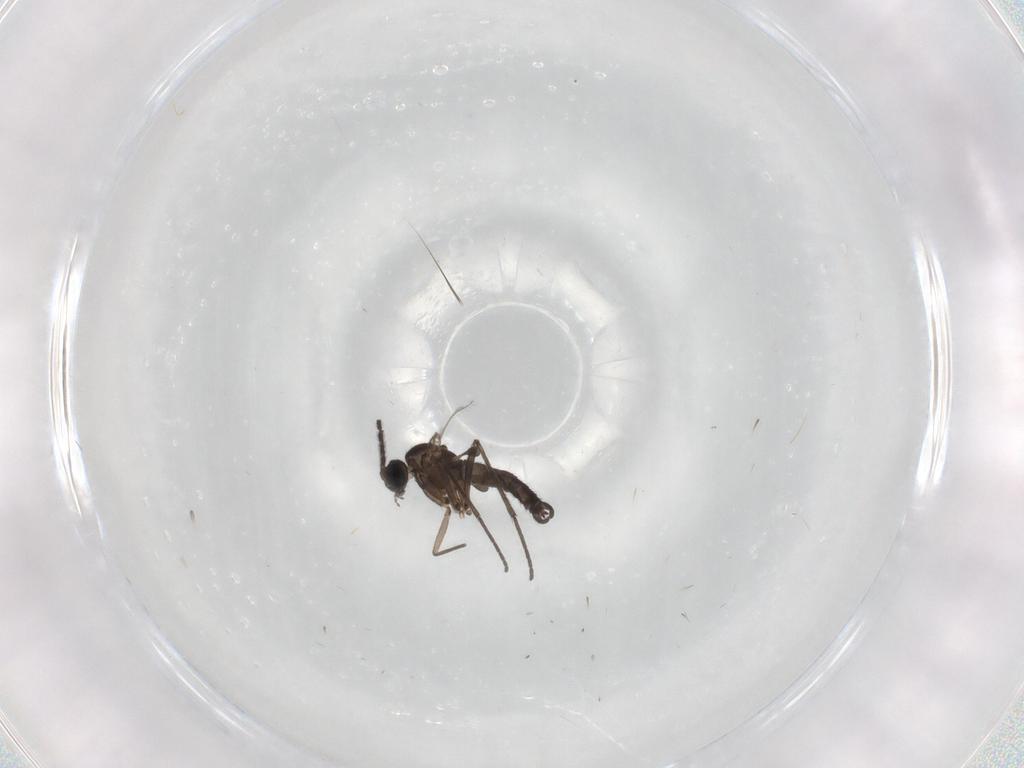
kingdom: Animalia
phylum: Arthropoda
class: Insecta
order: Diptera
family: Sciaridae
